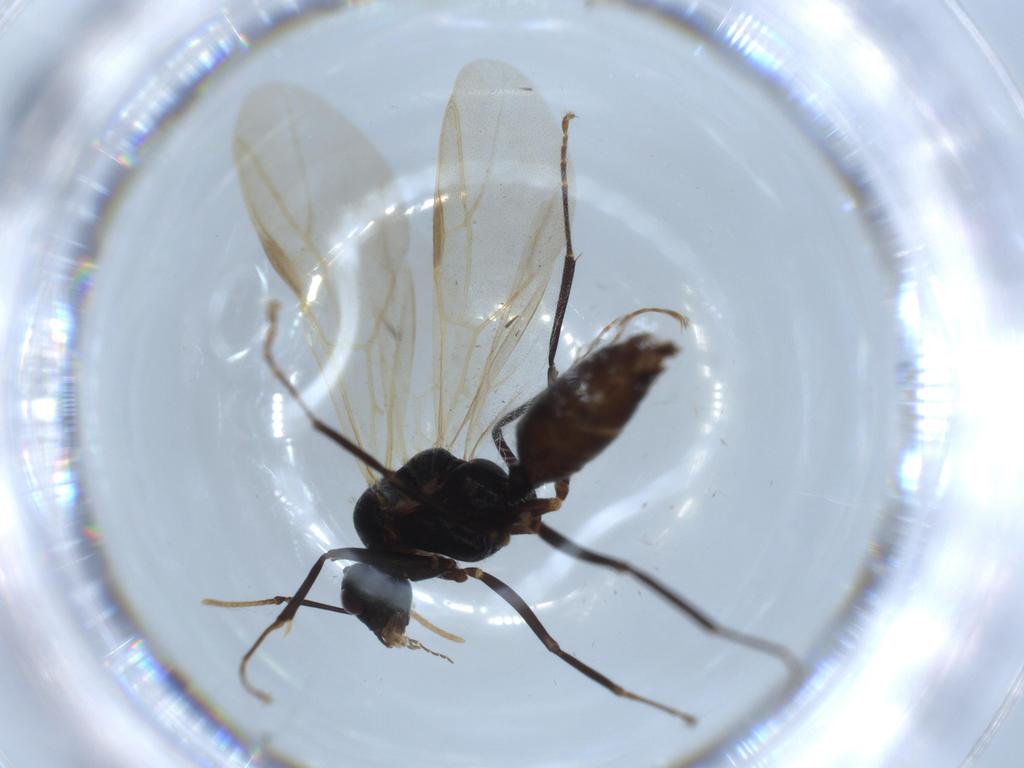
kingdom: Animalia
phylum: Arthropoda
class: Insecta
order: Hymenoptera
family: Formicidae
